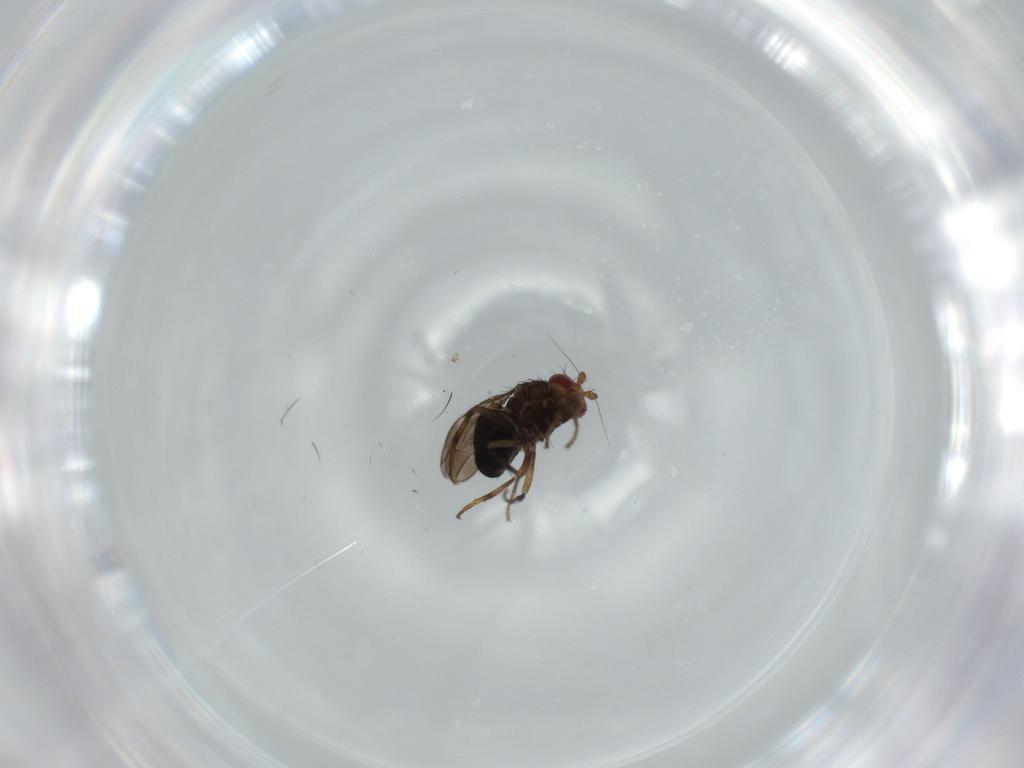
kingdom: Animalia
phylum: Arthropoda
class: Insecta
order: Diptera
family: Sphaeroceridae
